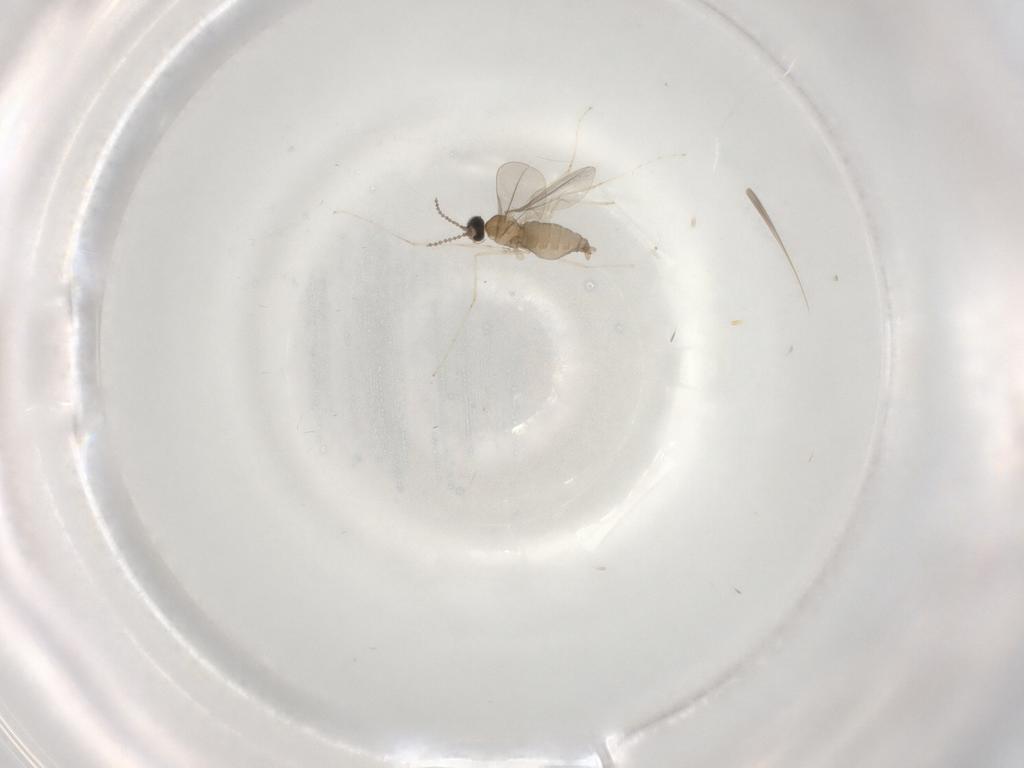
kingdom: Animalia
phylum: Arthropoda
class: Insecta
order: Diptera
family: Cecidomyiidae
